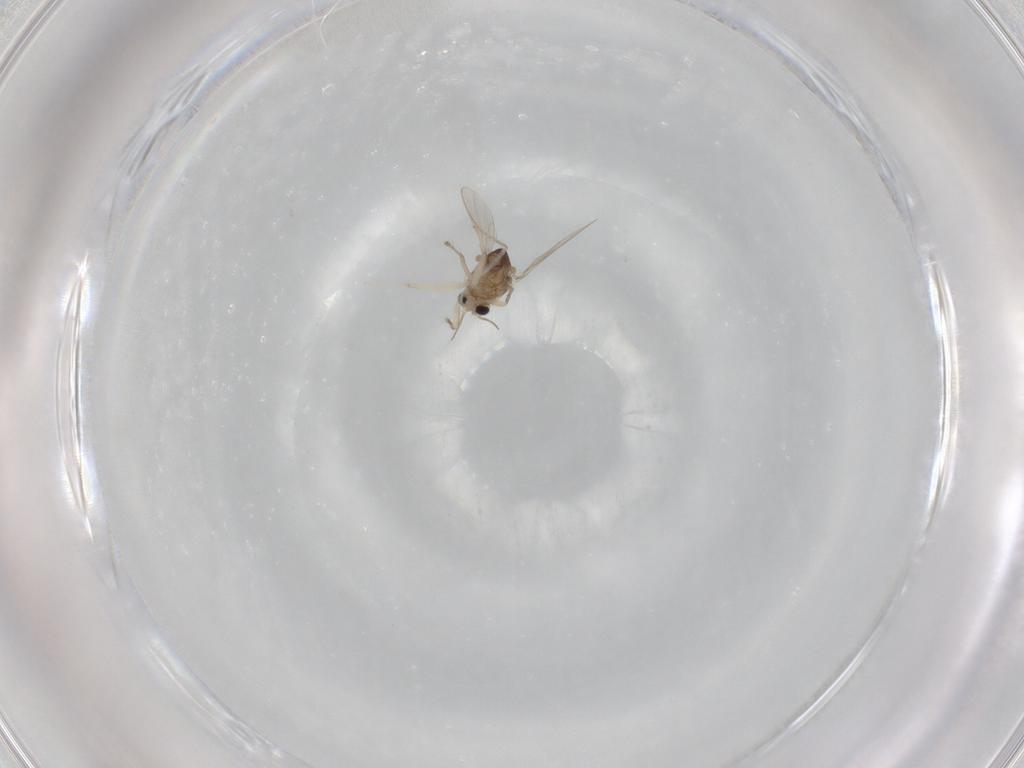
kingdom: Animalia
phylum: Arthropoda
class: Insecta
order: Diptera
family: Chironomidae
